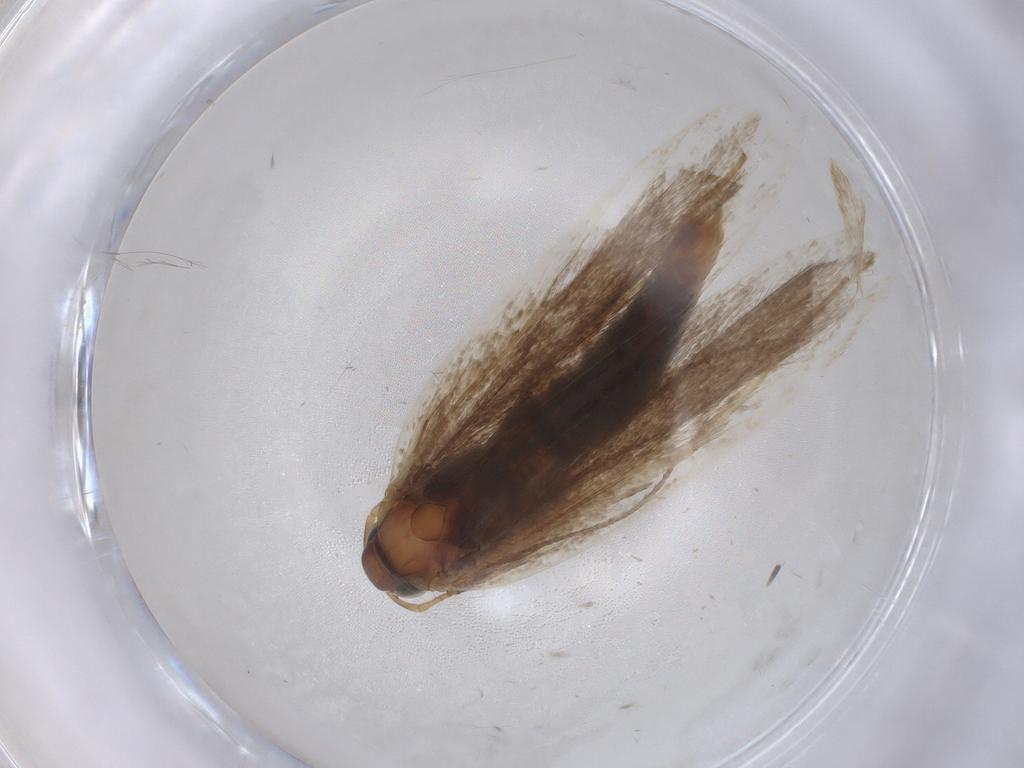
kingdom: Animalia
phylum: Arthropoda
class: Insecta
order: Lepidoptera
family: Gelechiidae
